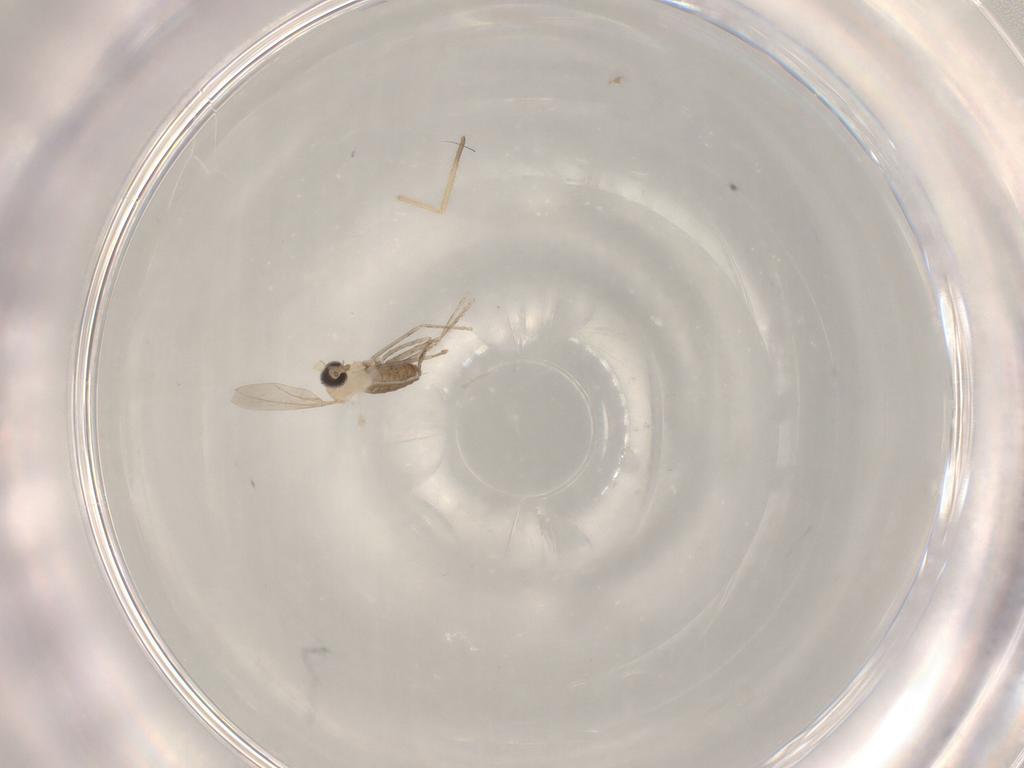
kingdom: Animalia
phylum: Arthropoda
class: Insecta
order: Diptera
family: Cecidomyiidae
